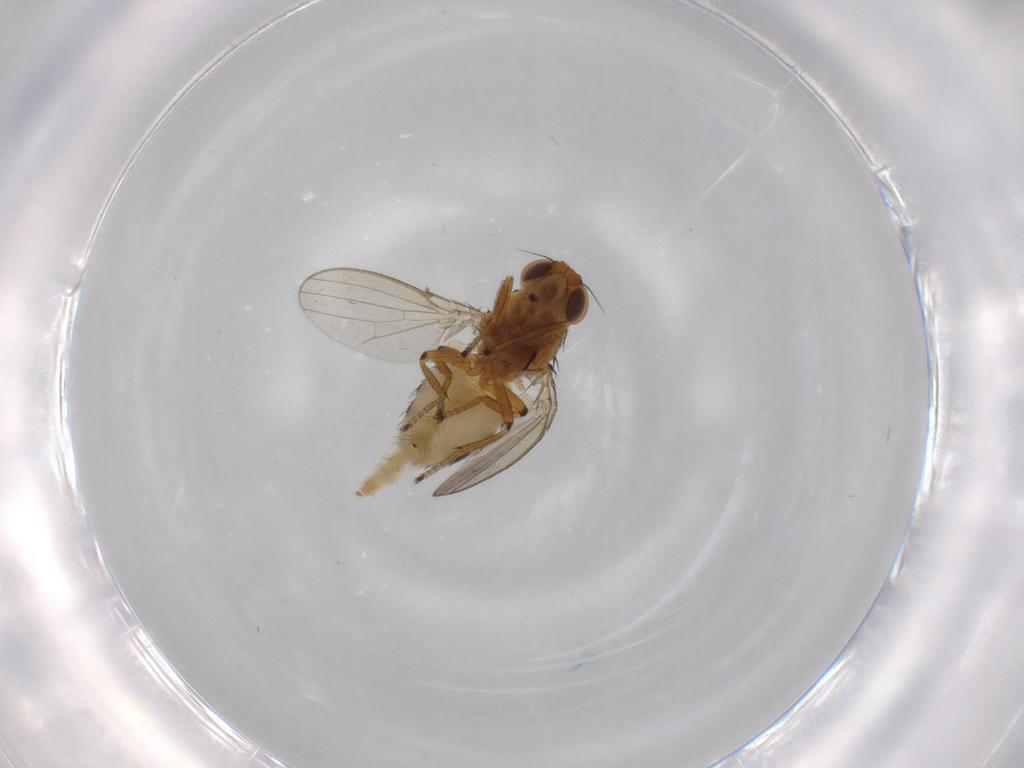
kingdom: Animalia
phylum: Arthropoda
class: Insecta
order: Diptera
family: Milichiidae
